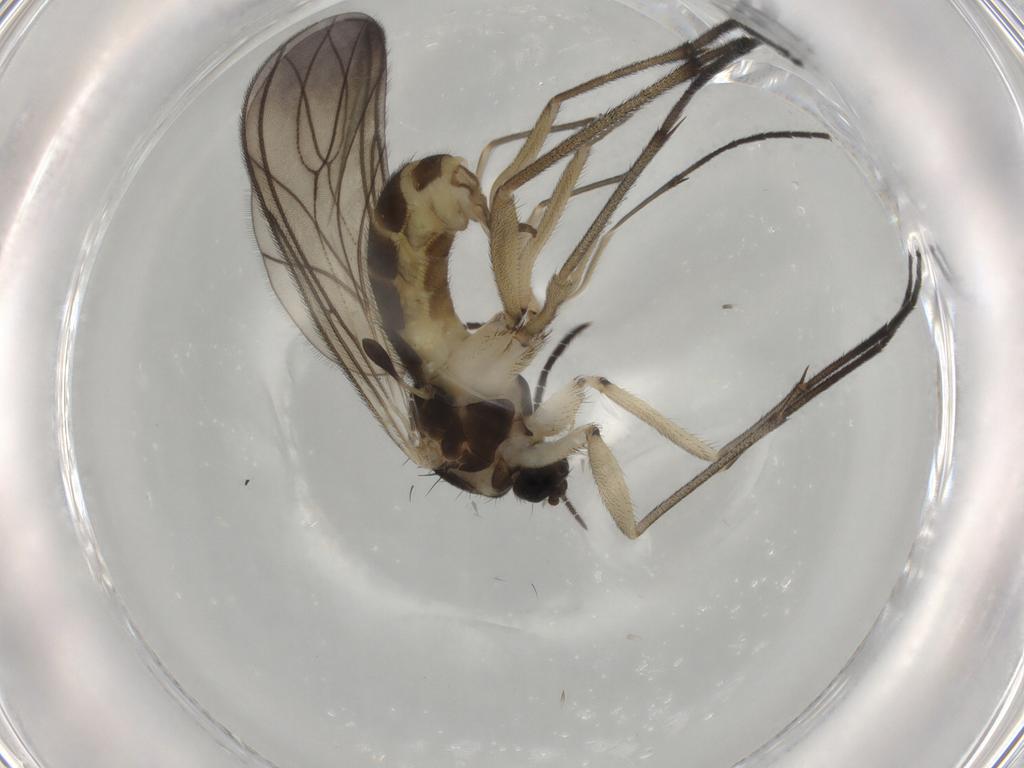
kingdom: Animalia
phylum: Arthropoda
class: Insecta
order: Diptera
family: Sciaridae
